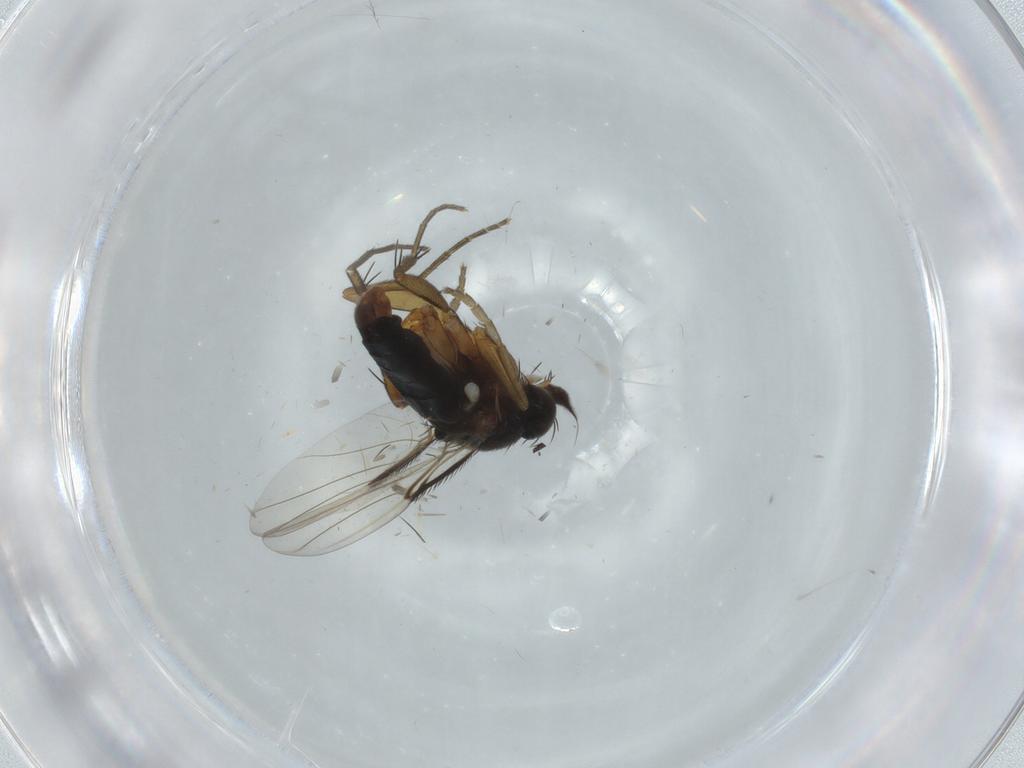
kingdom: Animalia
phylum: Arthropoda
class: Insecta
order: Diptera
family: Phoridae
